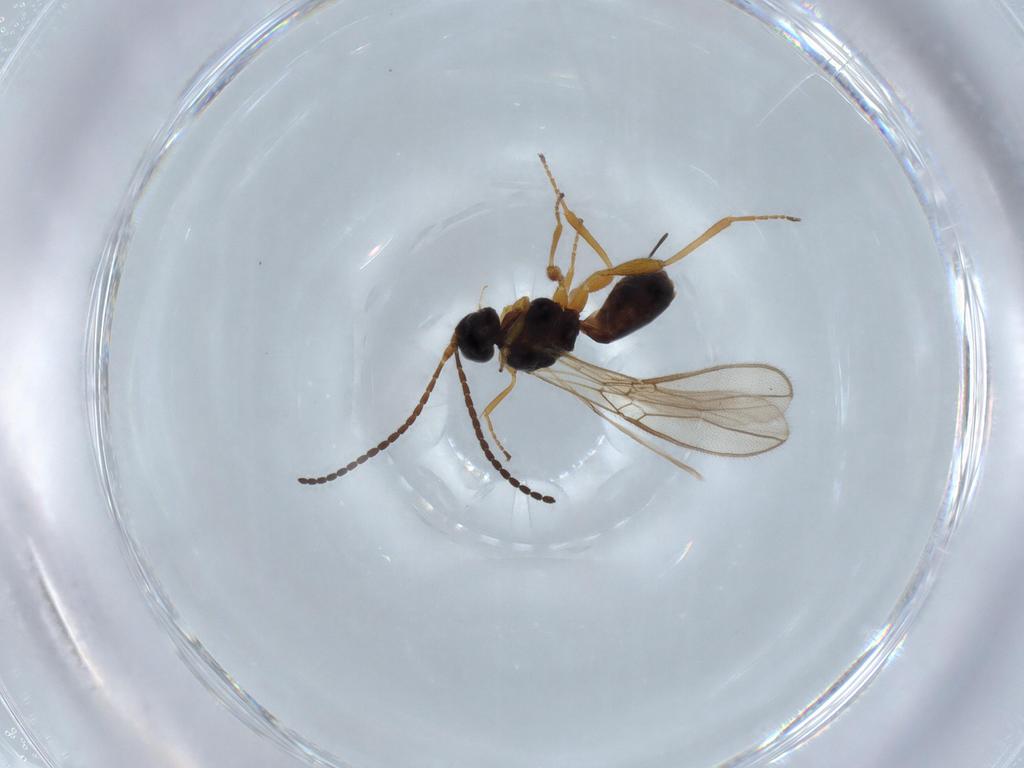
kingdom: Animalia
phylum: Arthropoda
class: Insecta
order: Hymenoptera
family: Braconidae
